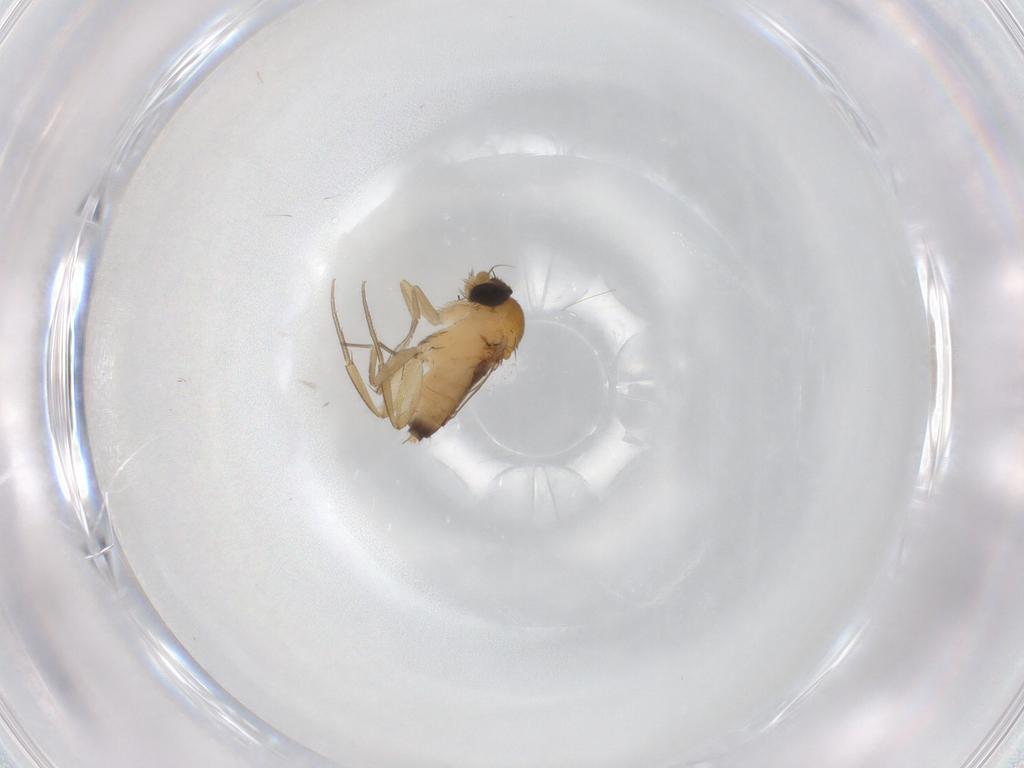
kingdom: Animalia
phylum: Arthropoda
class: Insecta
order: Diptera
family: Phoridae
